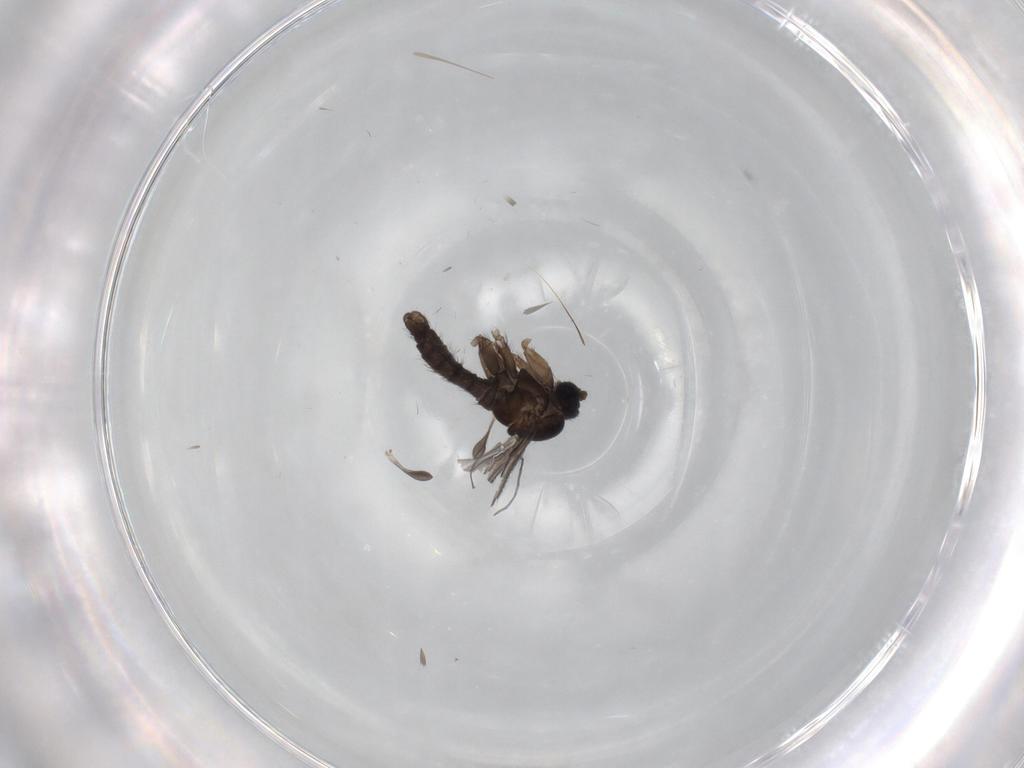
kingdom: Animalia
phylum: Arthropoda
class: Insecta
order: Diptera
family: Sciaridae
